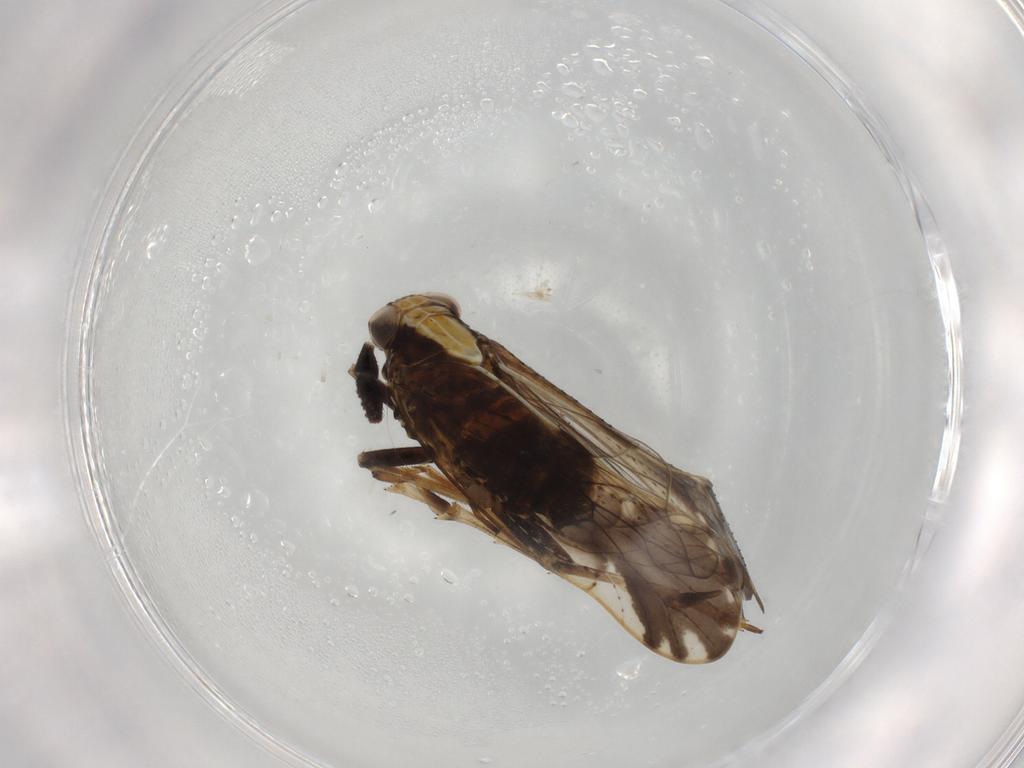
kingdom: Animalia
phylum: Arthropoda
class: Insecta
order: Hemiptera
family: Delphacidae
